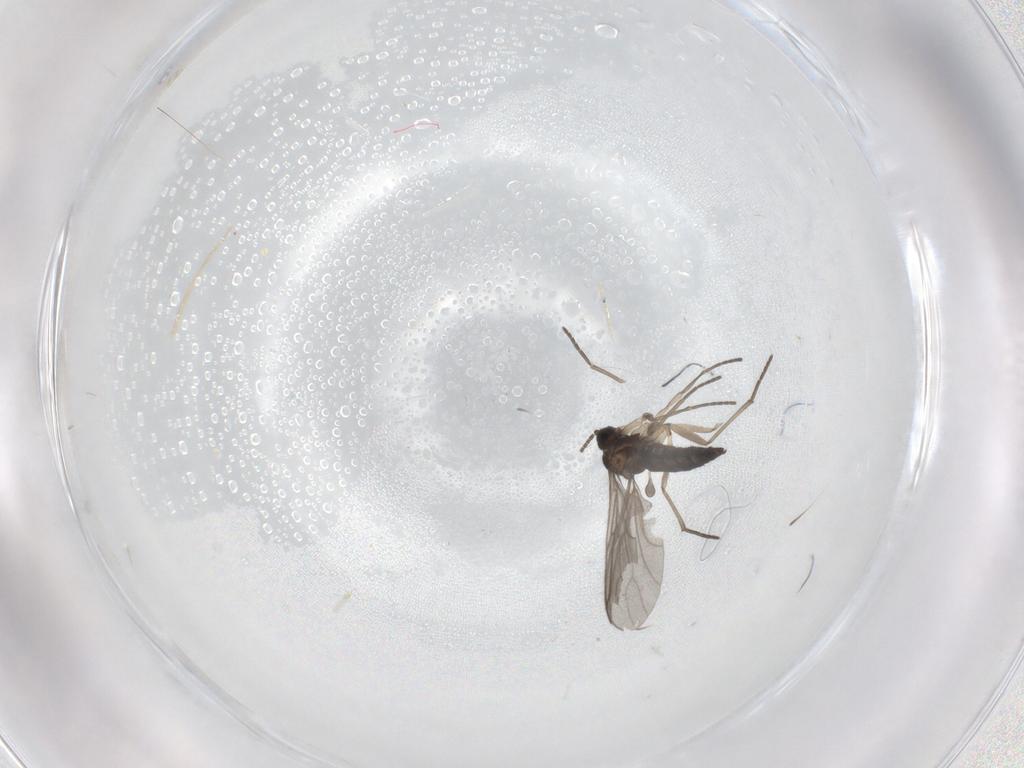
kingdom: Animalia
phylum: Arthropoda
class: Insecta
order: Diptera
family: Sciaridae
